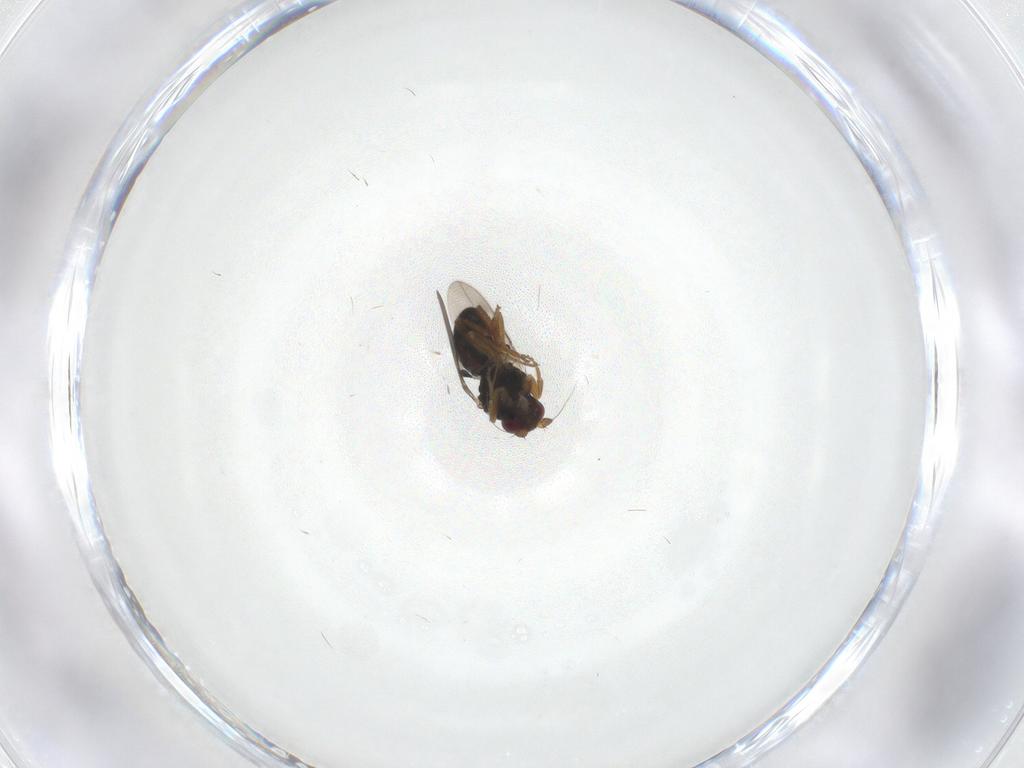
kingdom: Animalia
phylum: Arthropoda
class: Insecta
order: Diptera
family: Sphaeroceridae
